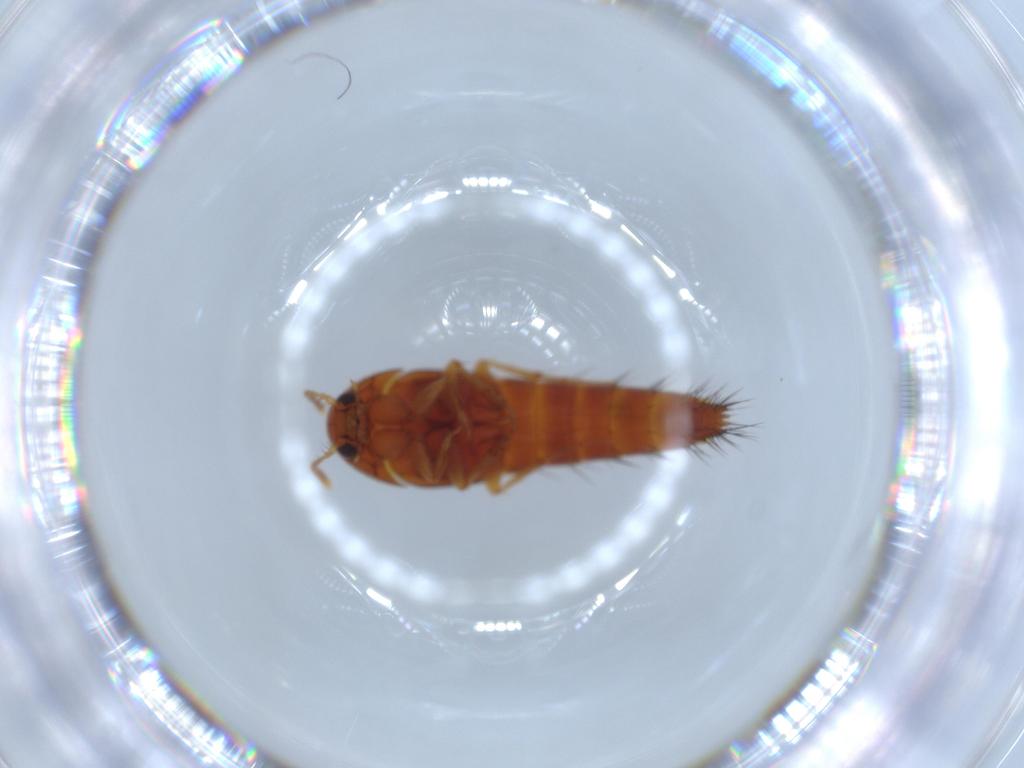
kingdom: Animalia
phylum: Arthropoda
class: Insecta
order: Coleoptera
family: Staphylinidae
